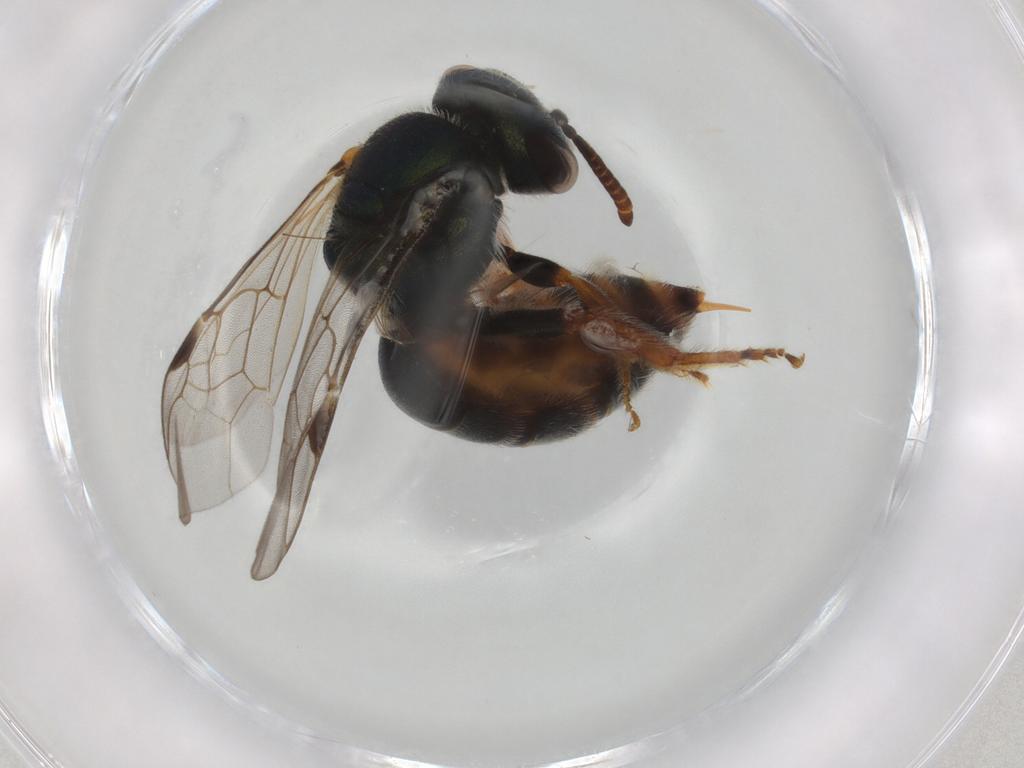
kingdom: Animalia
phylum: Arthropoda
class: Insecta
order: Hymenoptera
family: Halictidae
